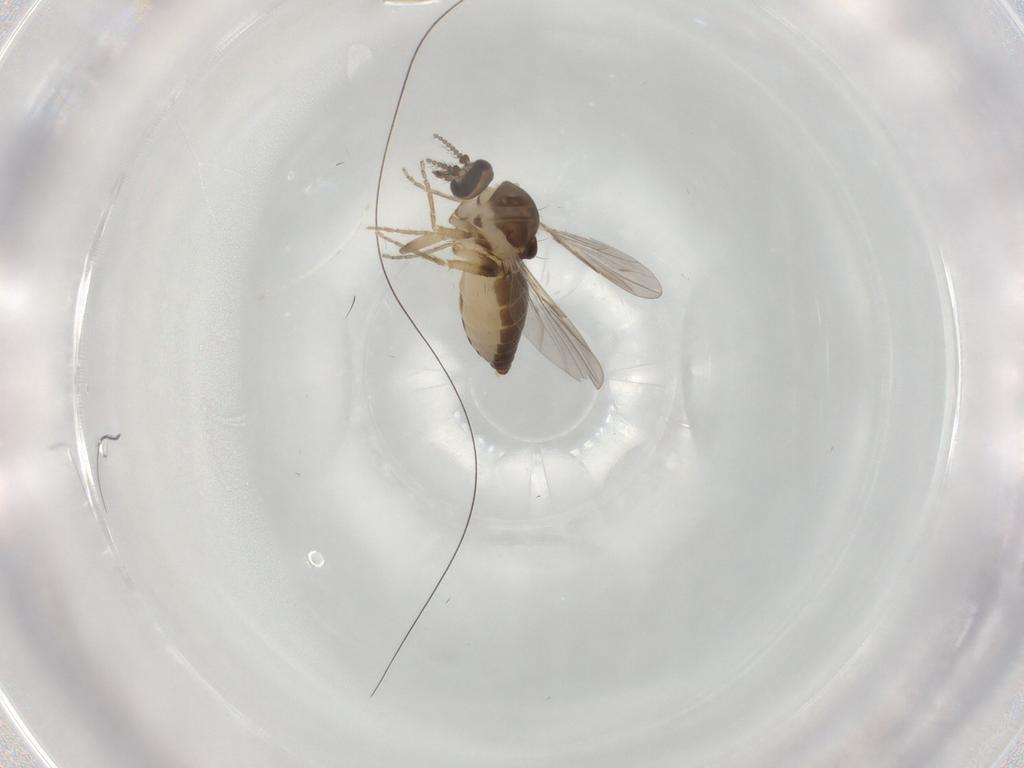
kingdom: Animalia
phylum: Arthropoda
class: Insecta
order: Diptera
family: Ceratopogonidae
